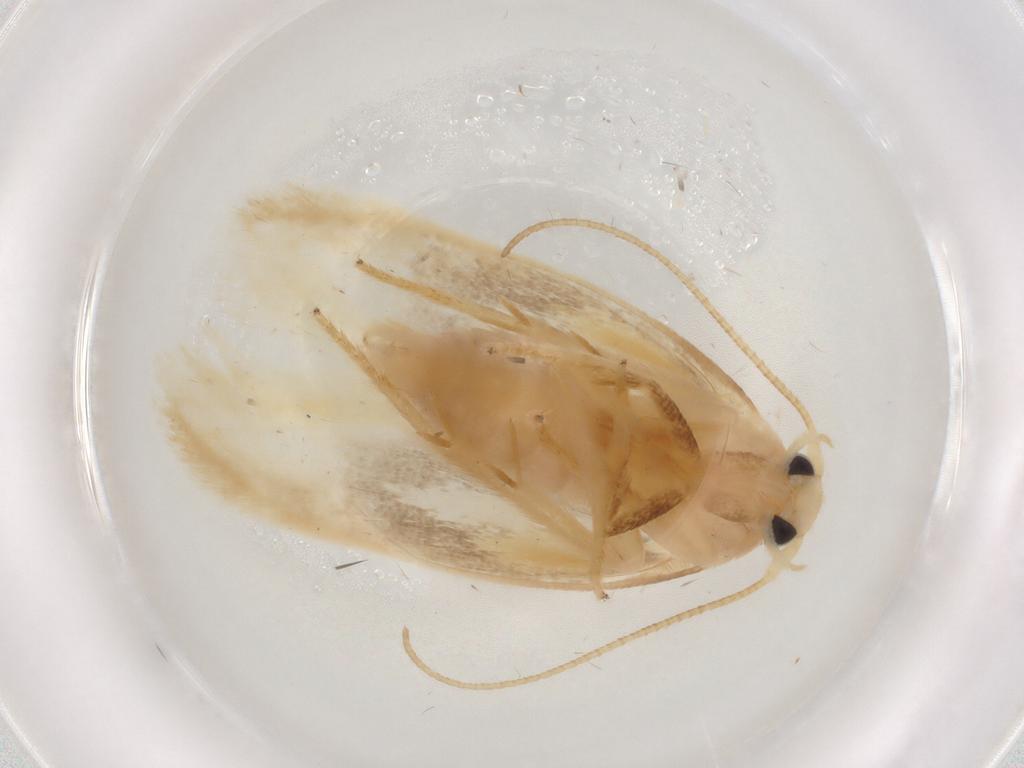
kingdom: Animalia
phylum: Arthropoda
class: Insecta
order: Lepidoptera
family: Geometridae
